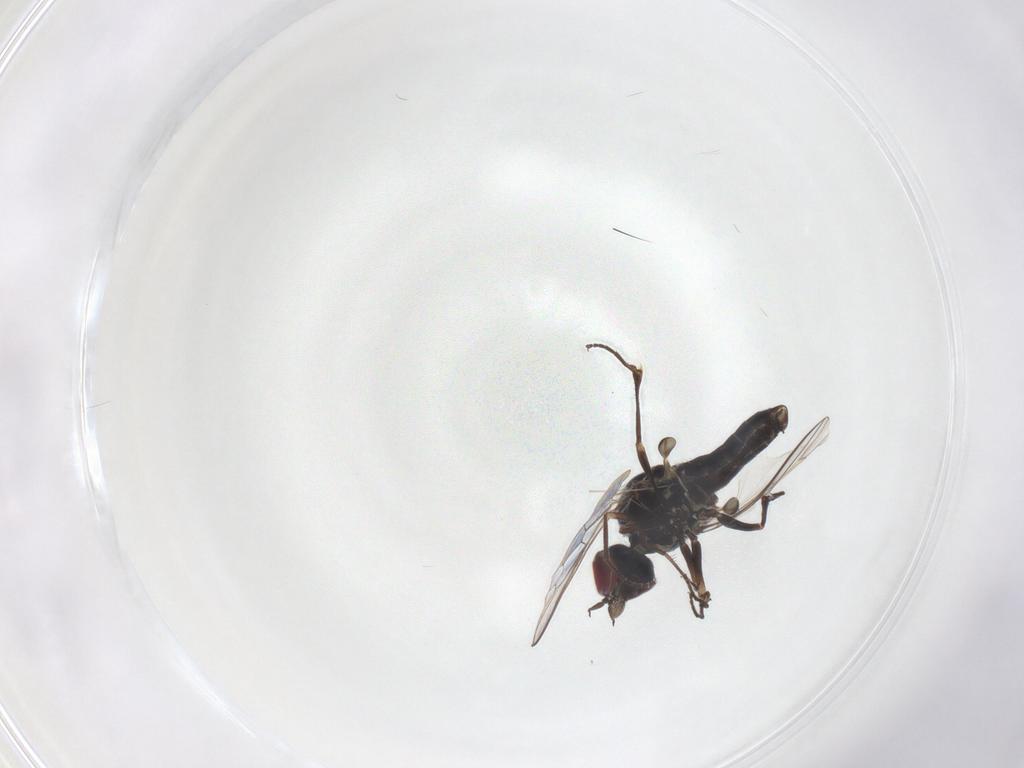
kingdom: Animalia
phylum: Arthropoda
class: Insecta
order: Diptera
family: Bombyliidae
